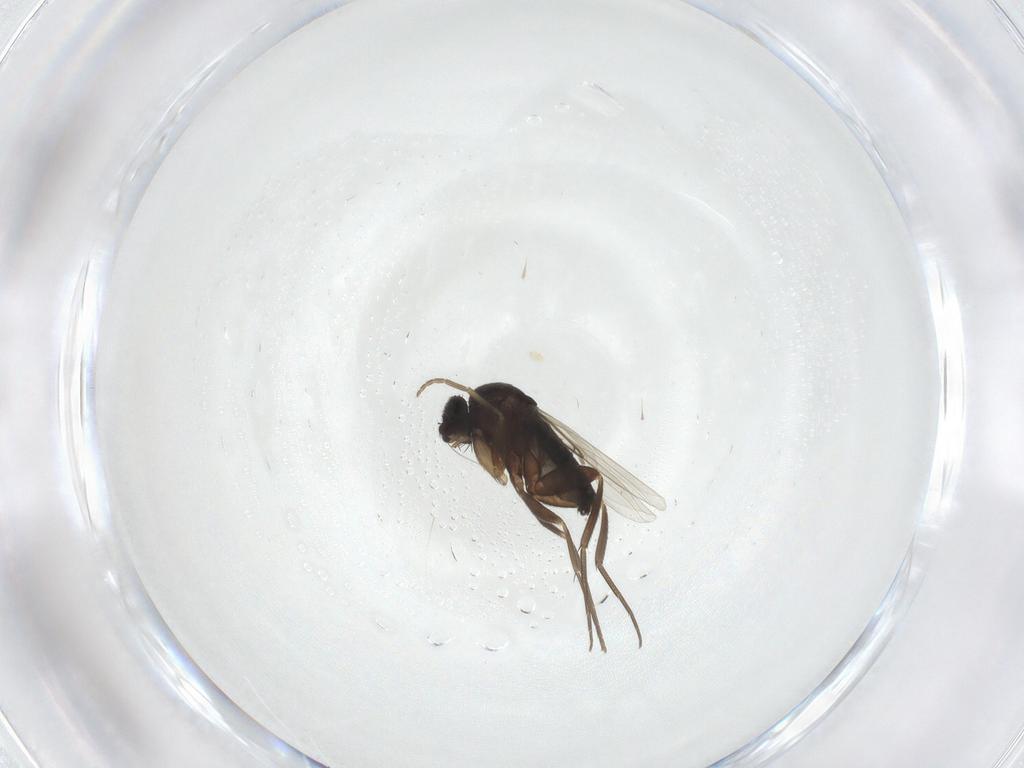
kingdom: Animalia
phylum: Arthropoda
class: Insecta
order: Diptera
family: Phoridae
